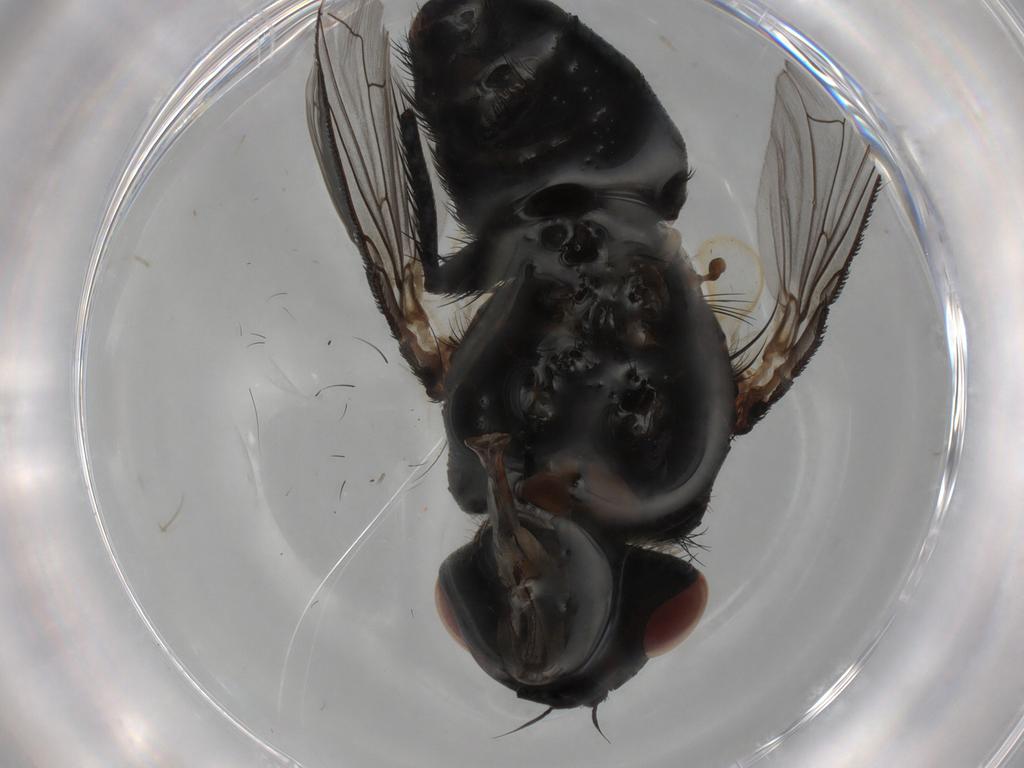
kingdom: Animalia
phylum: Arthropoda
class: Insecta
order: Diptera
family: Tachinidae
